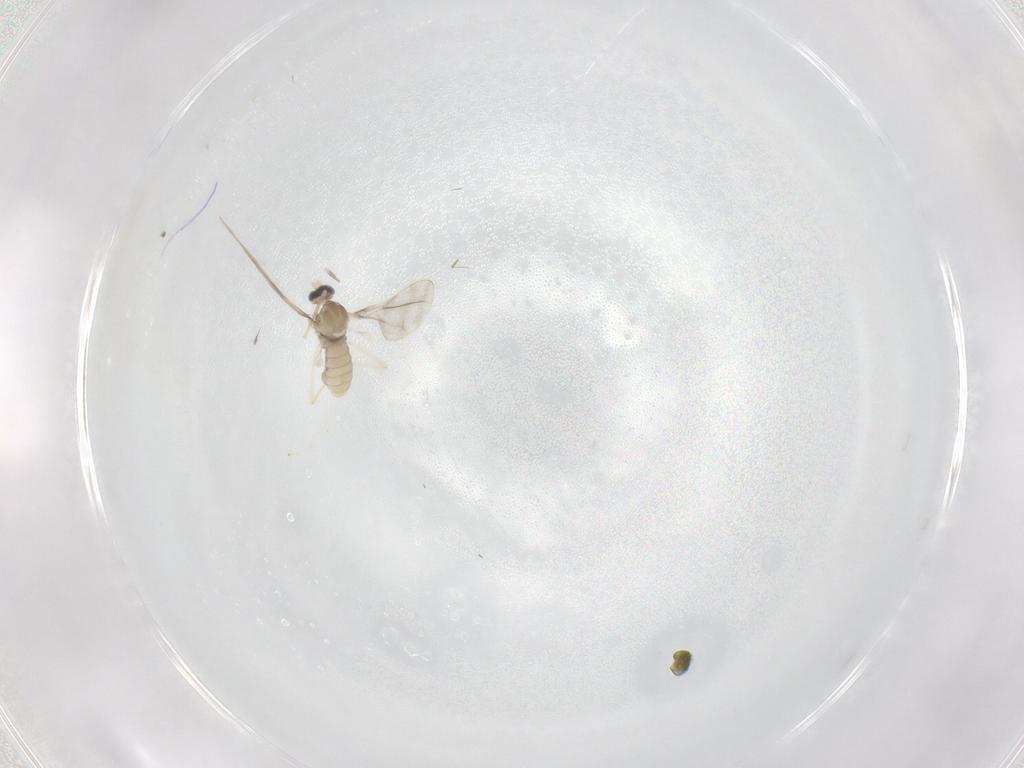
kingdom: Animalia
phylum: Arthropoda
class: Insecta
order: Diptera
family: Cecidomyiidae
